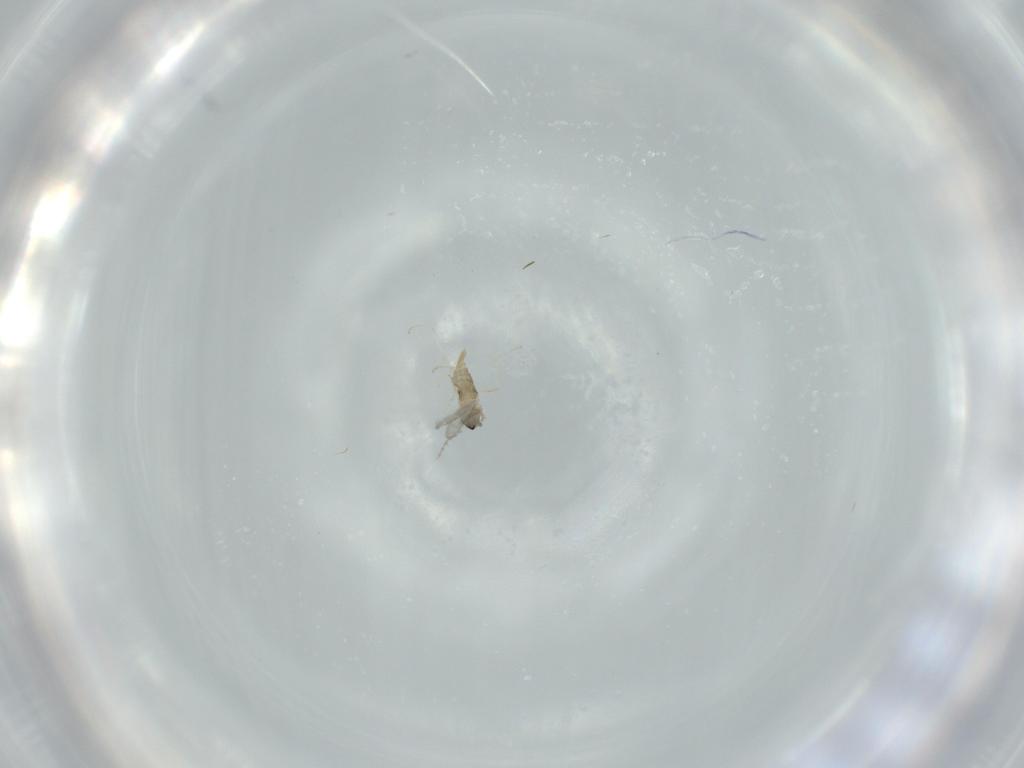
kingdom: Animalia
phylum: Arthropoda
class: Insecta
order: Diptera
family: Cecidomyiidae
